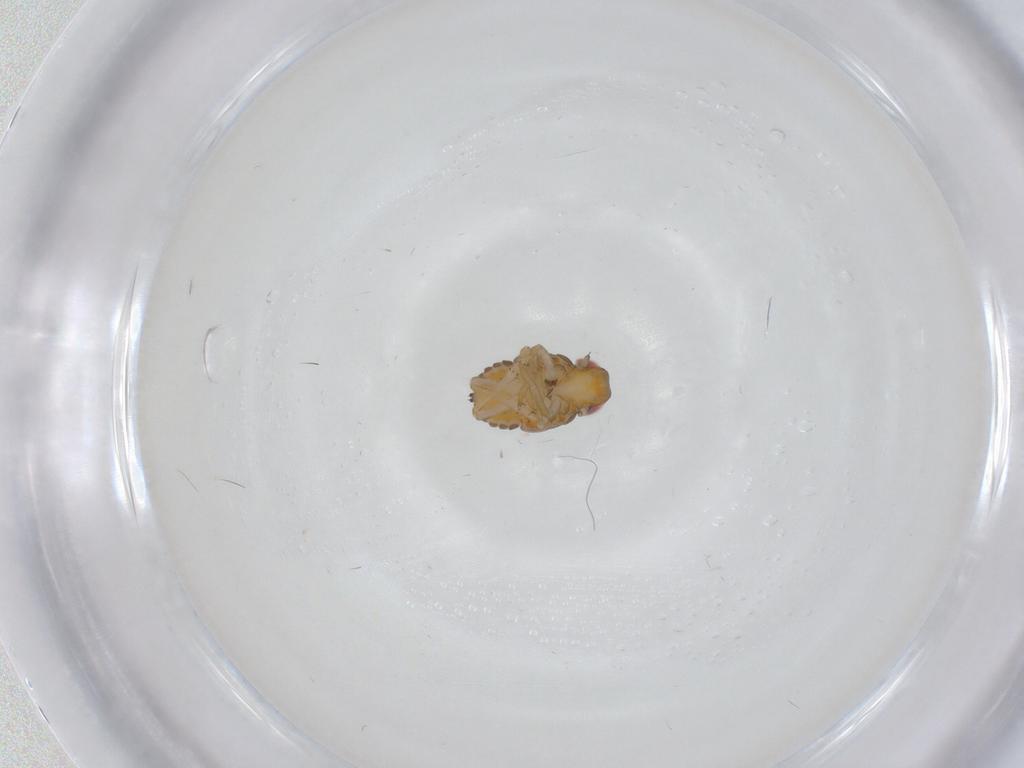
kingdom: Animalia
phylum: Arthropoda
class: Insecta
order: Hemiptera
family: Issidae
